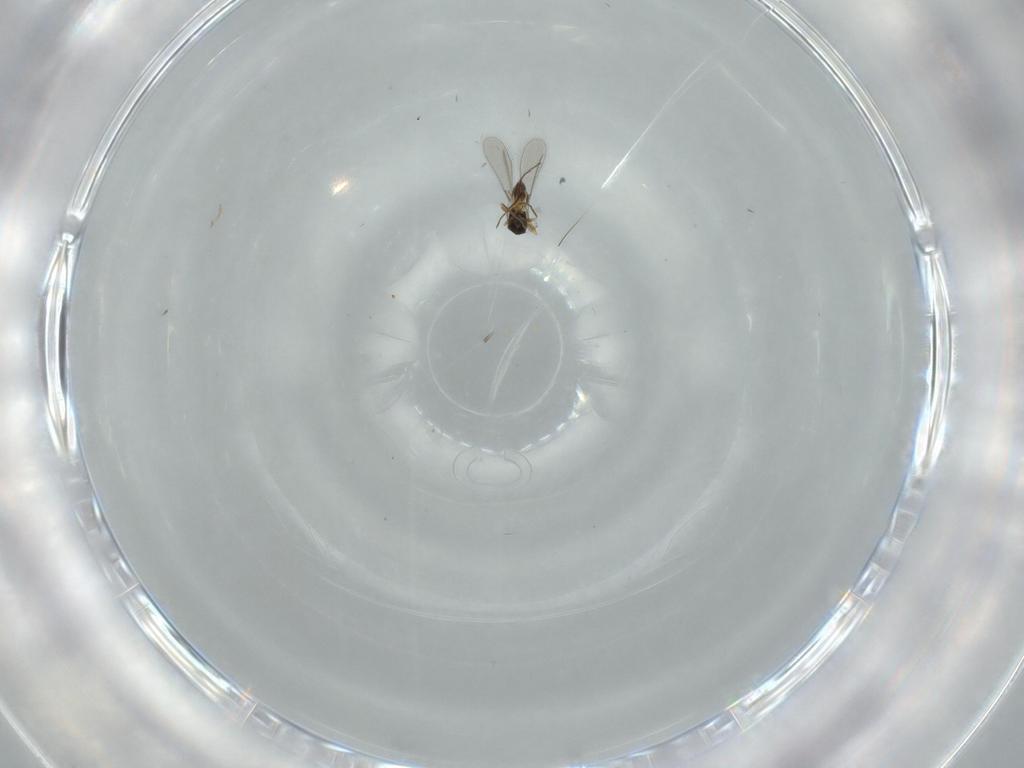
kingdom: Animalia
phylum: Arthropoda
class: Insecta
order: Hymenoptera
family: Mymaridae
